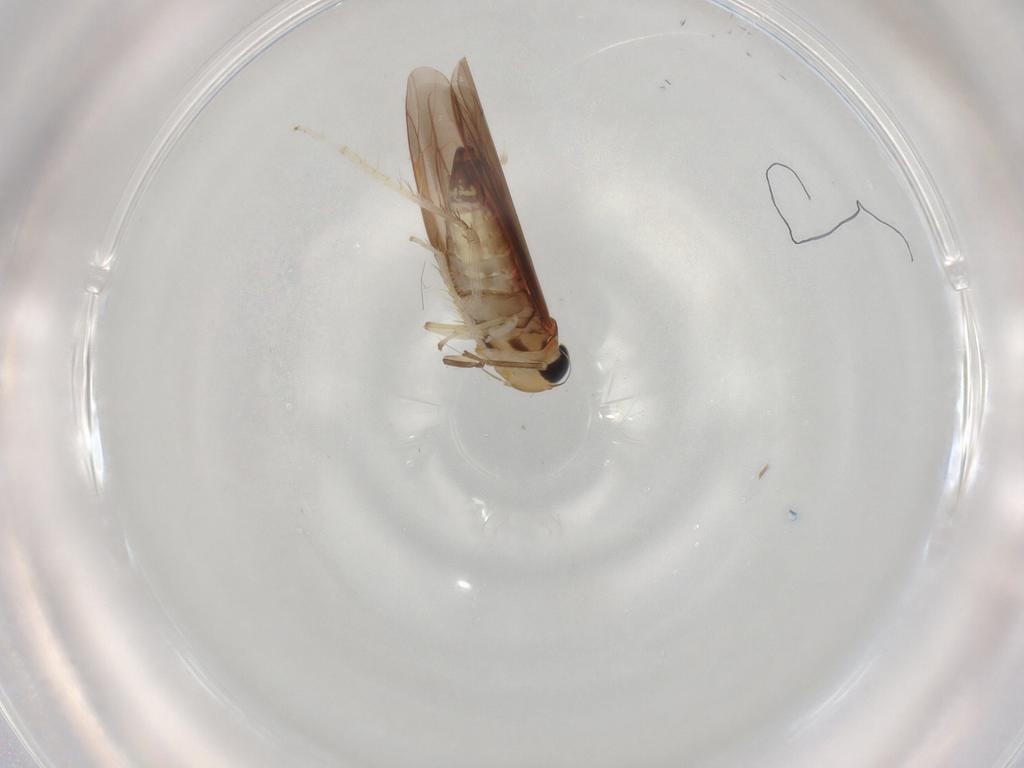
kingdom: Animalia
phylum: Arthropoda
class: Insecta
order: Hemiptera
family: Cicadellidae
